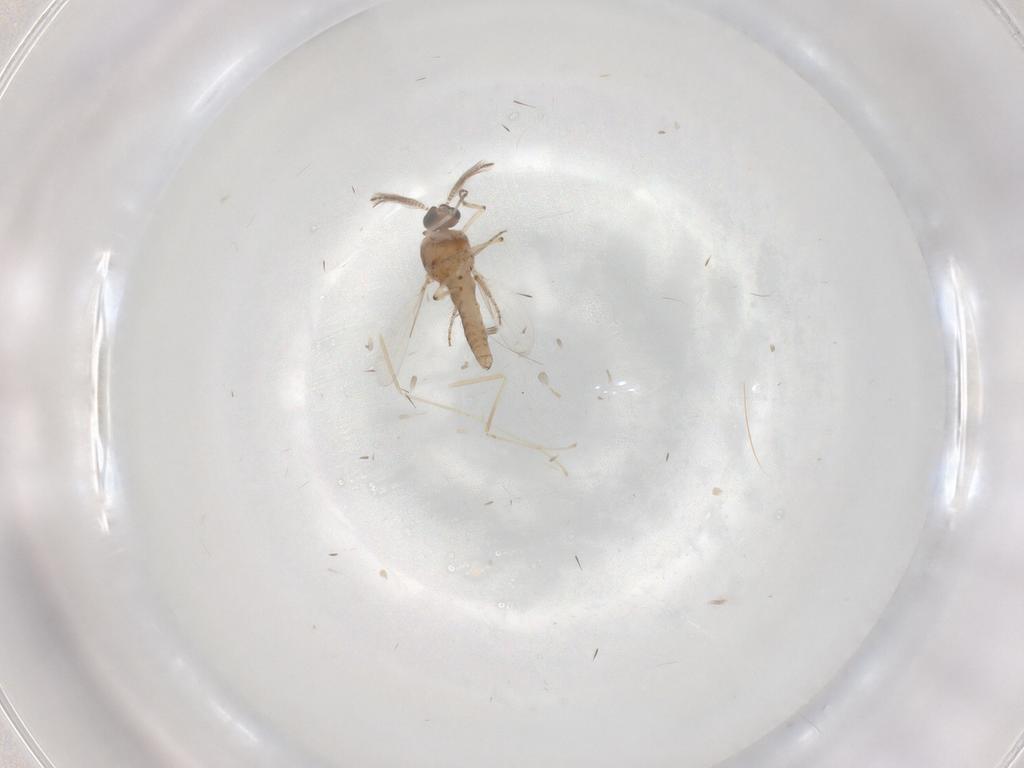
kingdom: Animalia
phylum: Arthropoda
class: Insecta
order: Diptera
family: Cecidomyiidae
